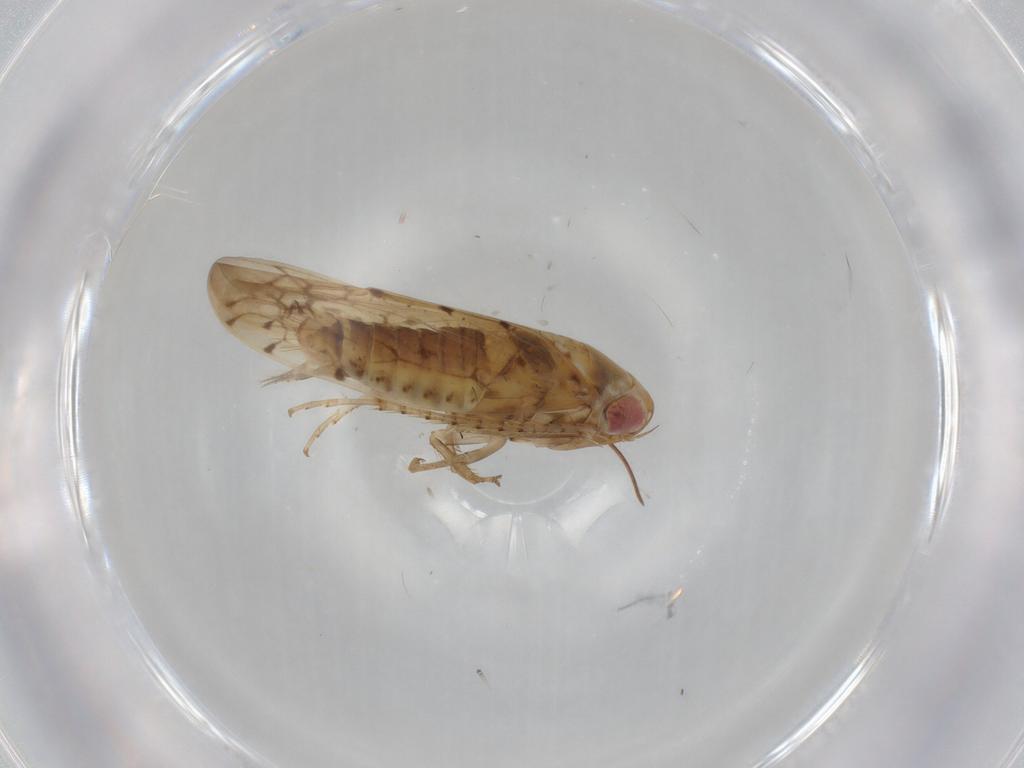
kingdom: Animalia
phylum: Arthropoda
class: Insecta
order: Hemiptera
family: Cicadellidae
